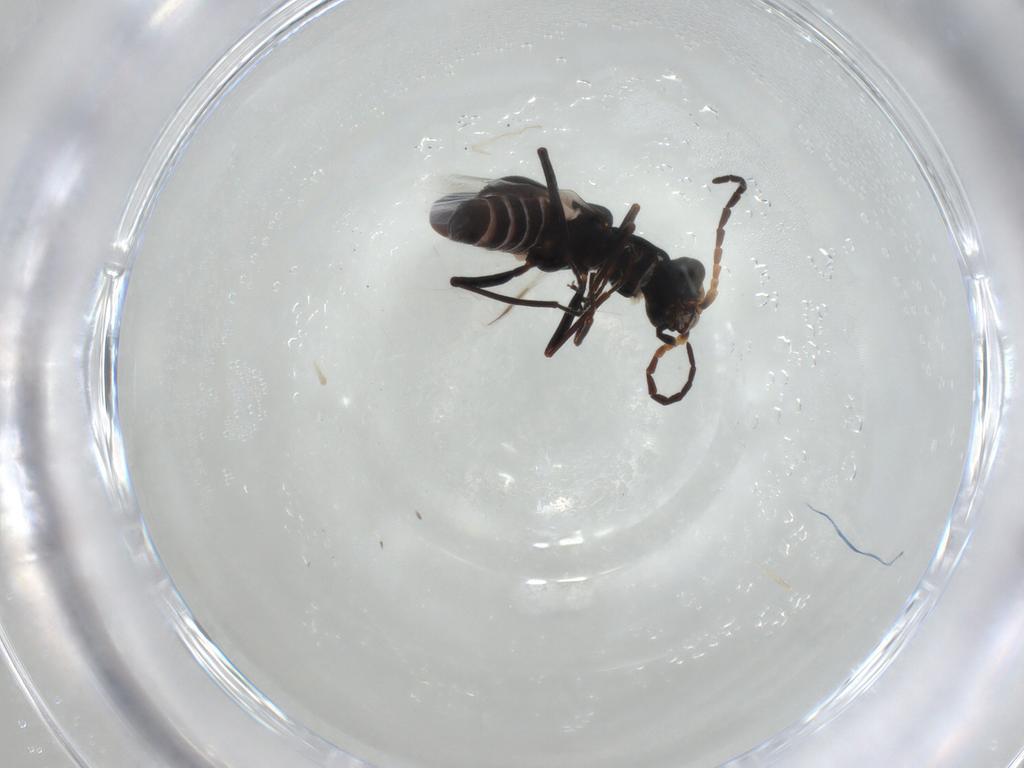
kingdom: Animalia
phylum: Arthropoda
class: Insecta
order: Coleoptera
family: Melyridae
